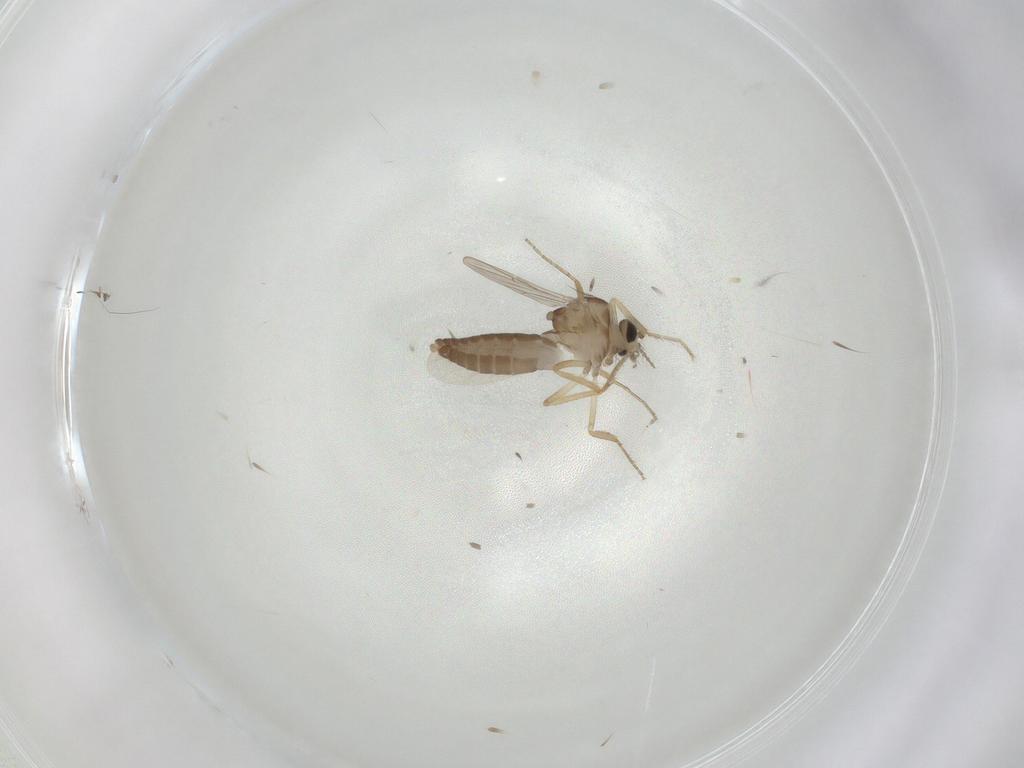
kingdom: Animalia
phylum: Arthropoda
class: Insecta
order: Diptera
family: Ceratopogonidae
